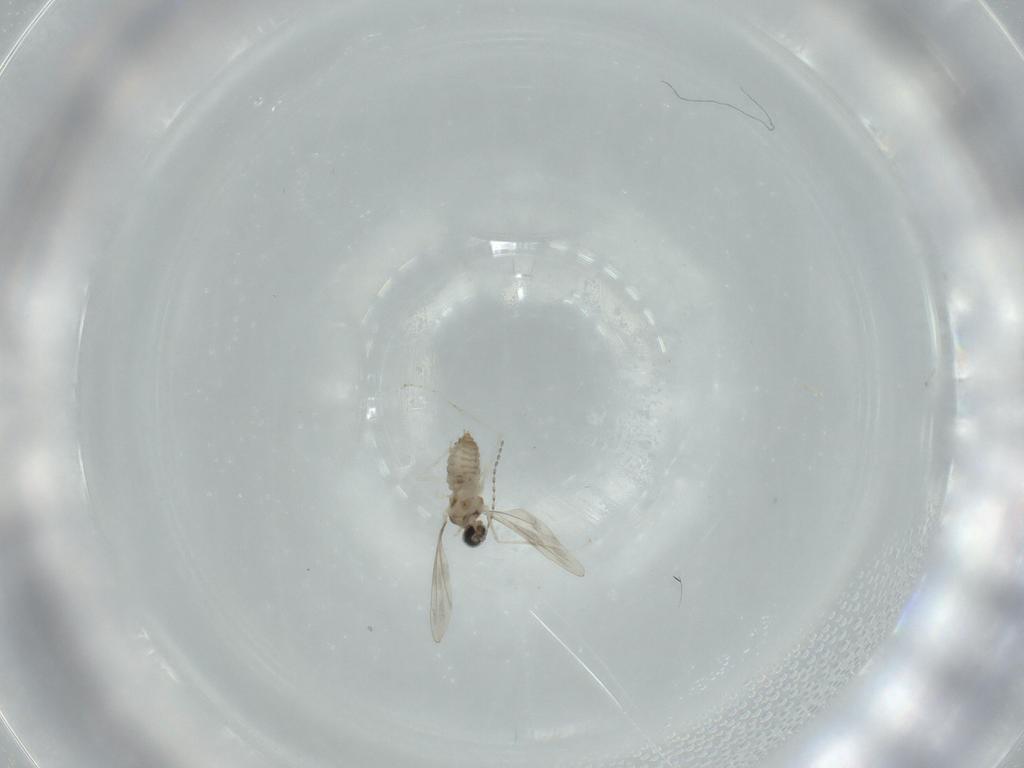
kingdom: Animalia
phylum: Arthropoda
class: Insecta
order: Diptera
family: Cecidomyiidae
